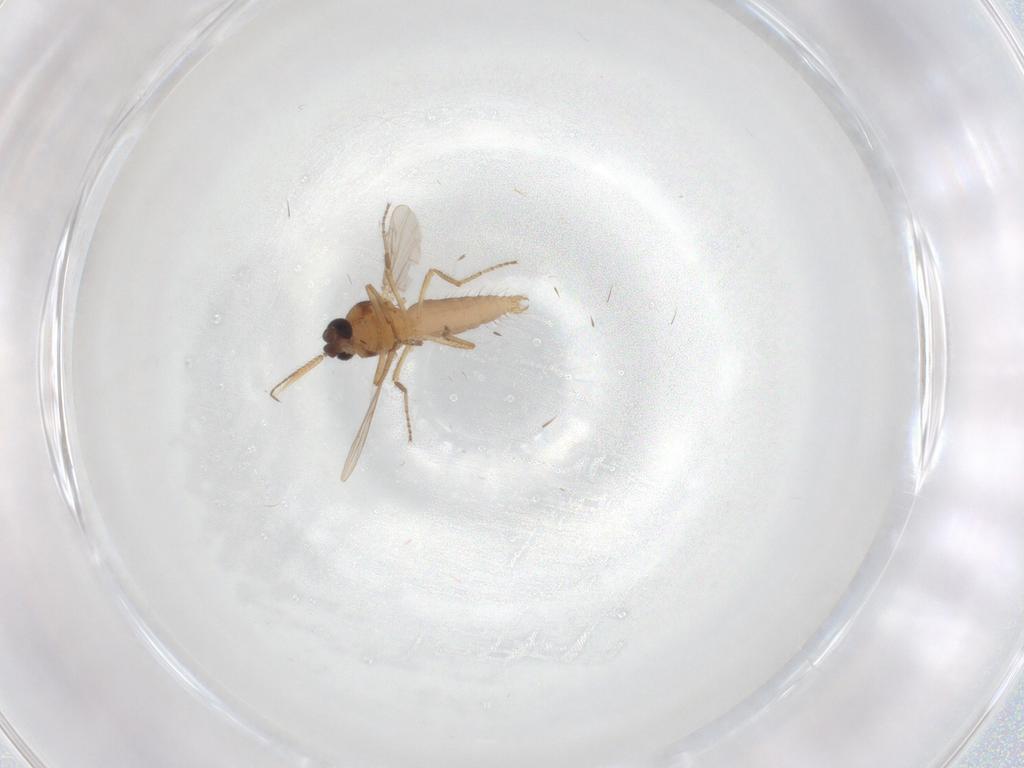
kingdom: Animalia
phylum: Arthropoda
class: Insecta
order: Diptera
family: Ceratopogonidae
